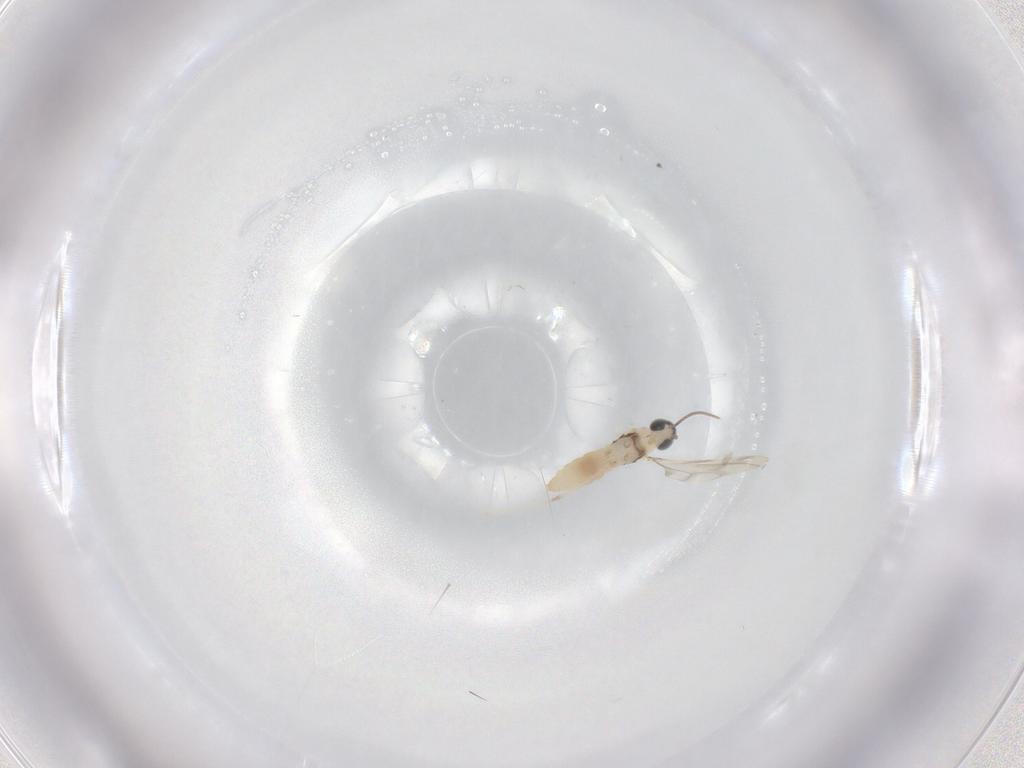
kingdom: Animalia
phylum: Arthropoda
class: Insecta
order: Diptera
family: Cecidomyiidae
